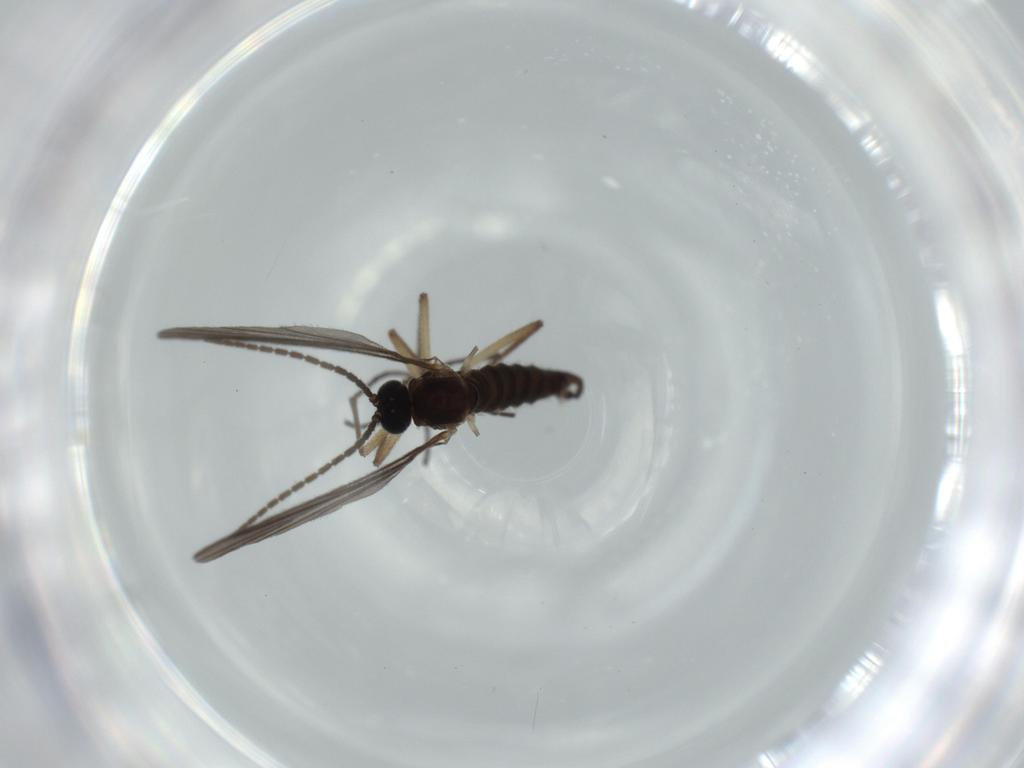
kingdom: Animalia
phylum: Arthropoda
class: Insecta
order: Diptera
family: Sciaridae
